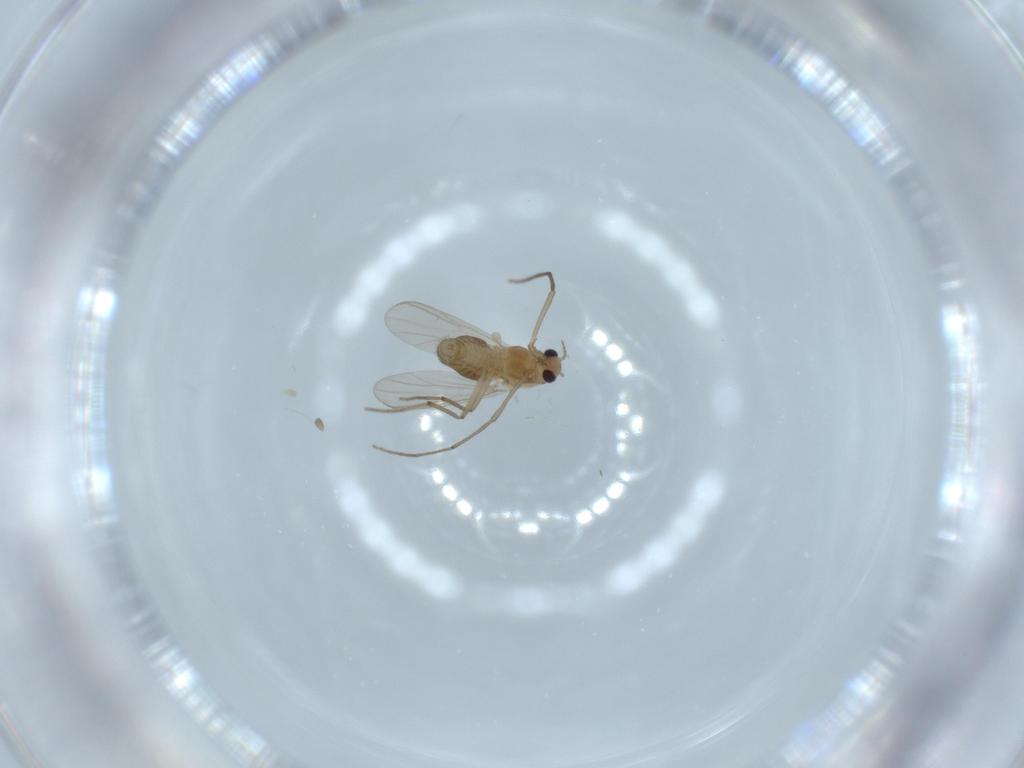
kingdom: Animalia
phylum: Arthropoda
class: Insecta
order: Diptera
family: Chironomidae
